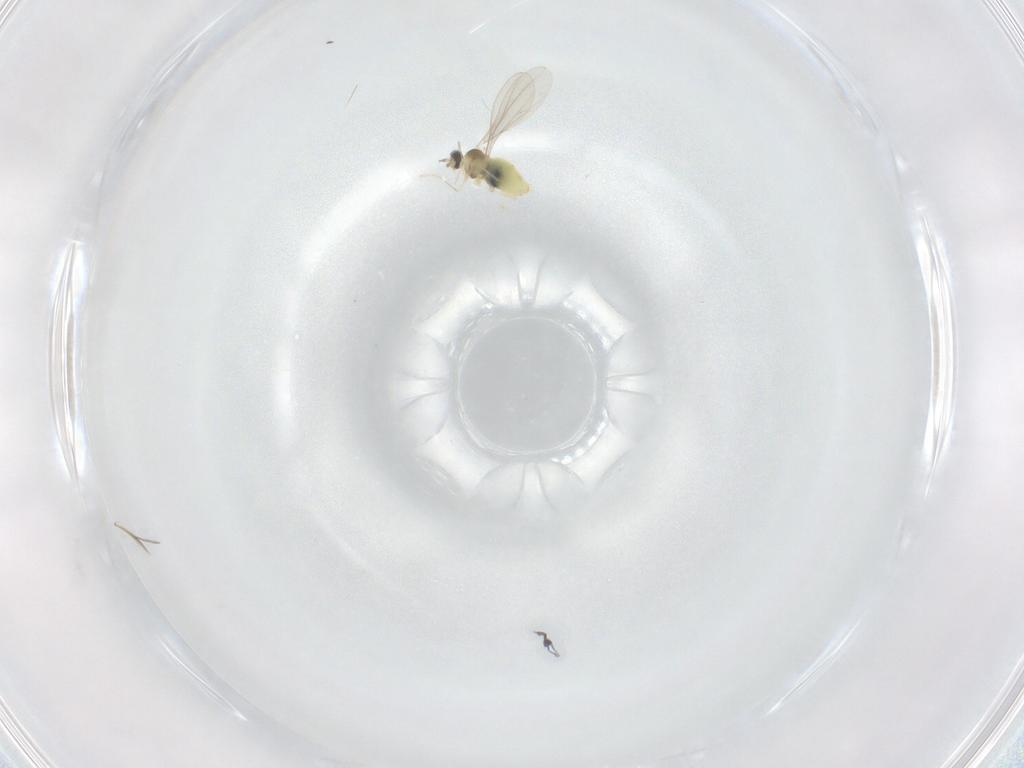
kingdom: Animalia
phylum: Arthropoda
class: Insecta
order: Diptera
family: Cecidomyiidae
